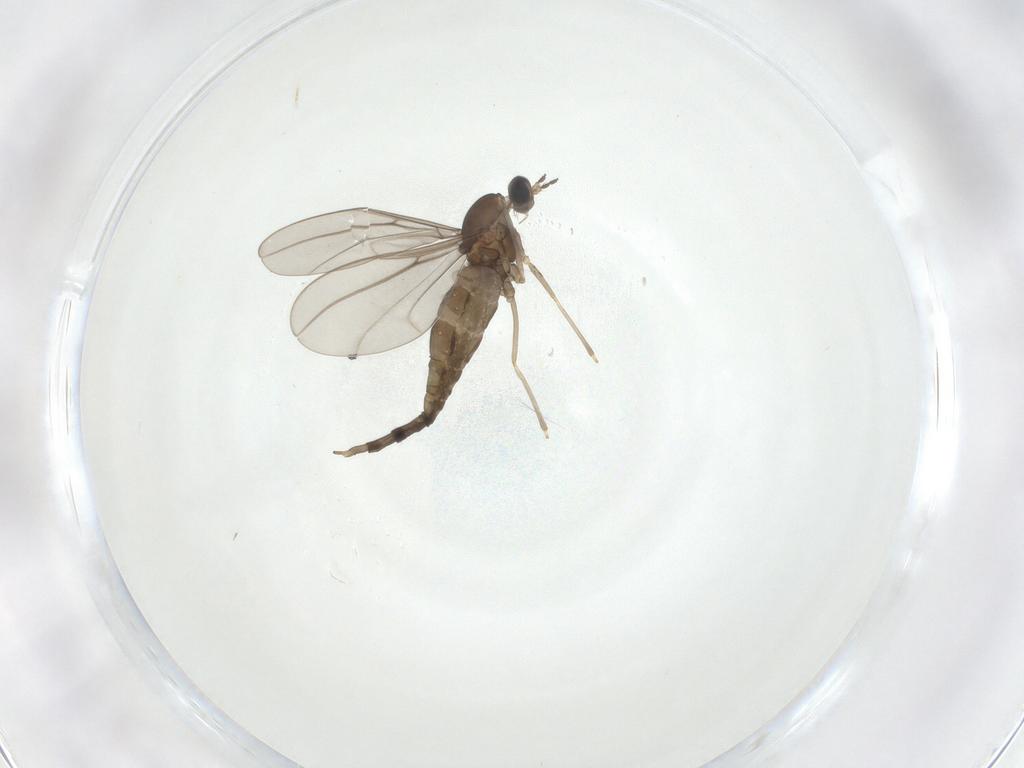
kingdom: Animalia
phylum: Arthropoda
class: Insecta
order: Diptera
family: Cecidomyiidae
